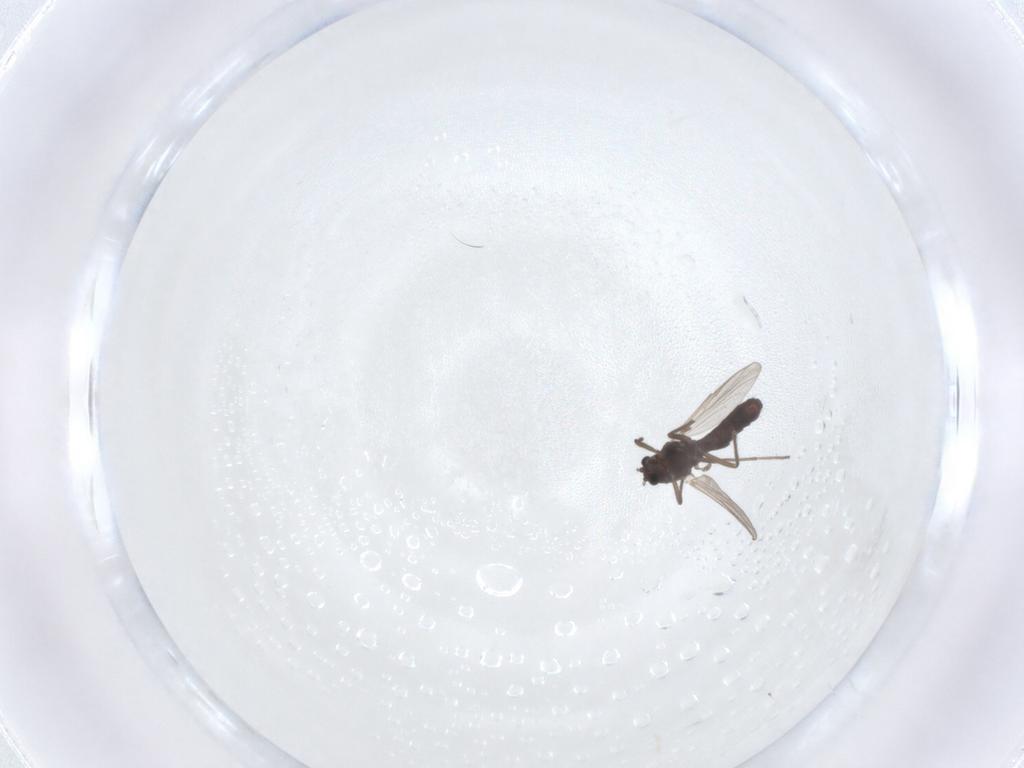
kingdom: Animalia
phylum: Arthropoda
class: Insecta
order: Diptera
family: Chironomidae
